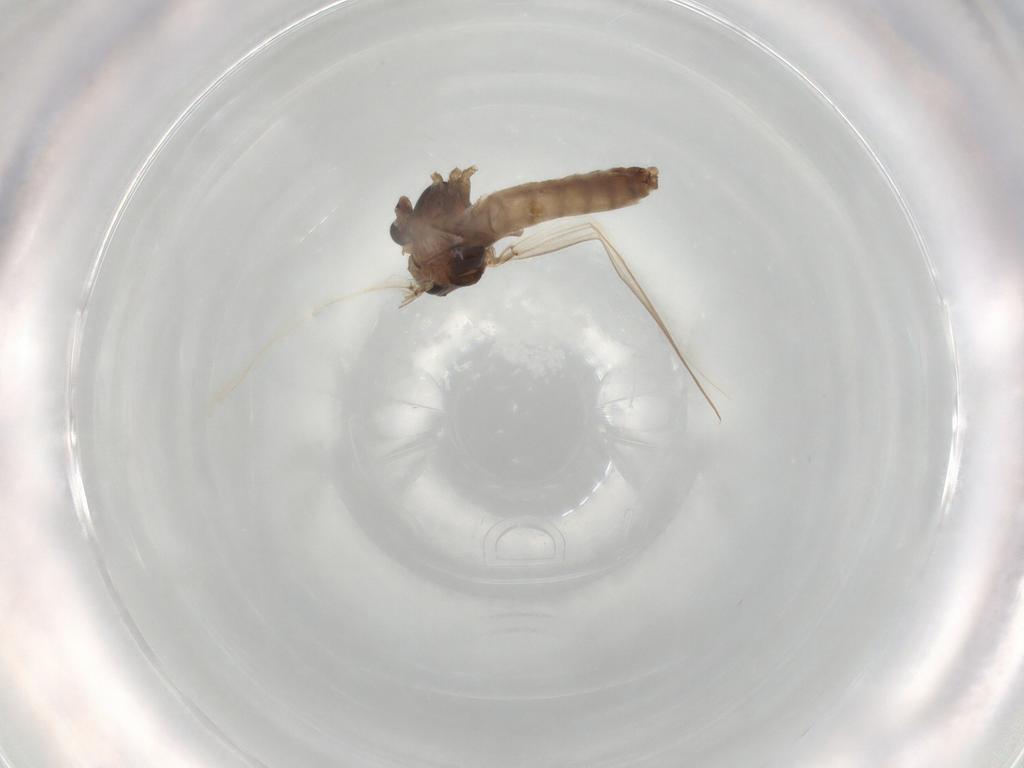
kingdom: Animalia
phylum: Arthropoda
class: Insecta
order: Diptera
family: Chironomidae
